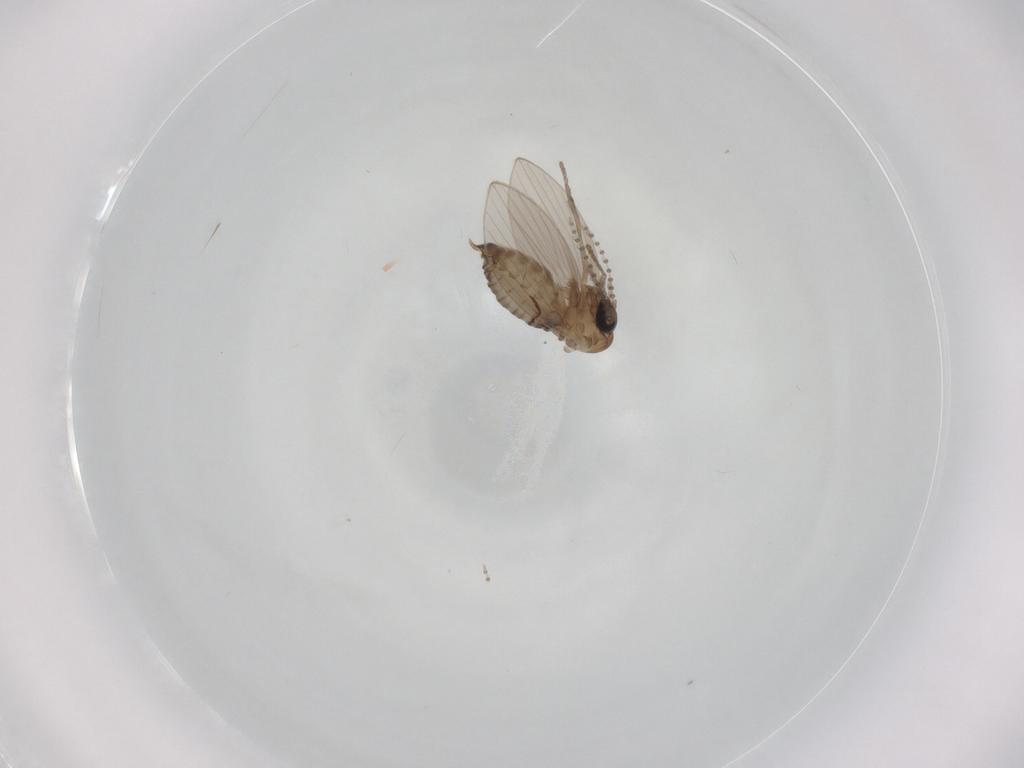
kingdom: Animalia
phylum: Arthropoda
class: Insecta
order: Diptera
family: Psychodidae
